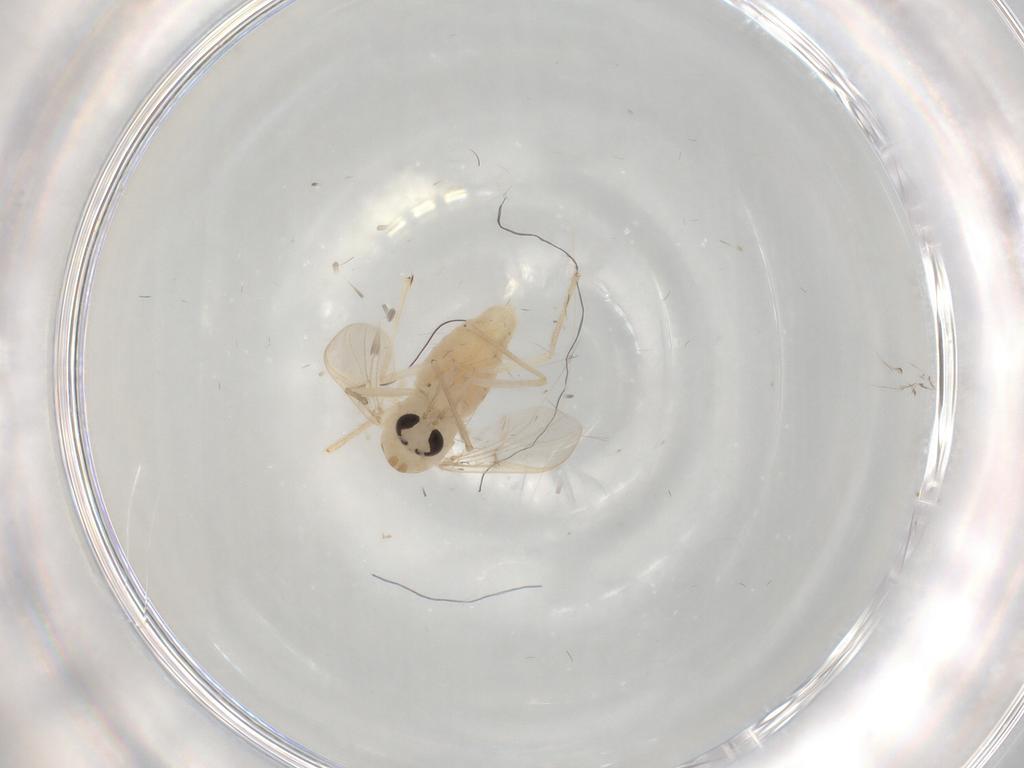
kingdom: Animalia
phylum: Arthropoda
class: Insecta
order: Diptera
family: Chironomidae
